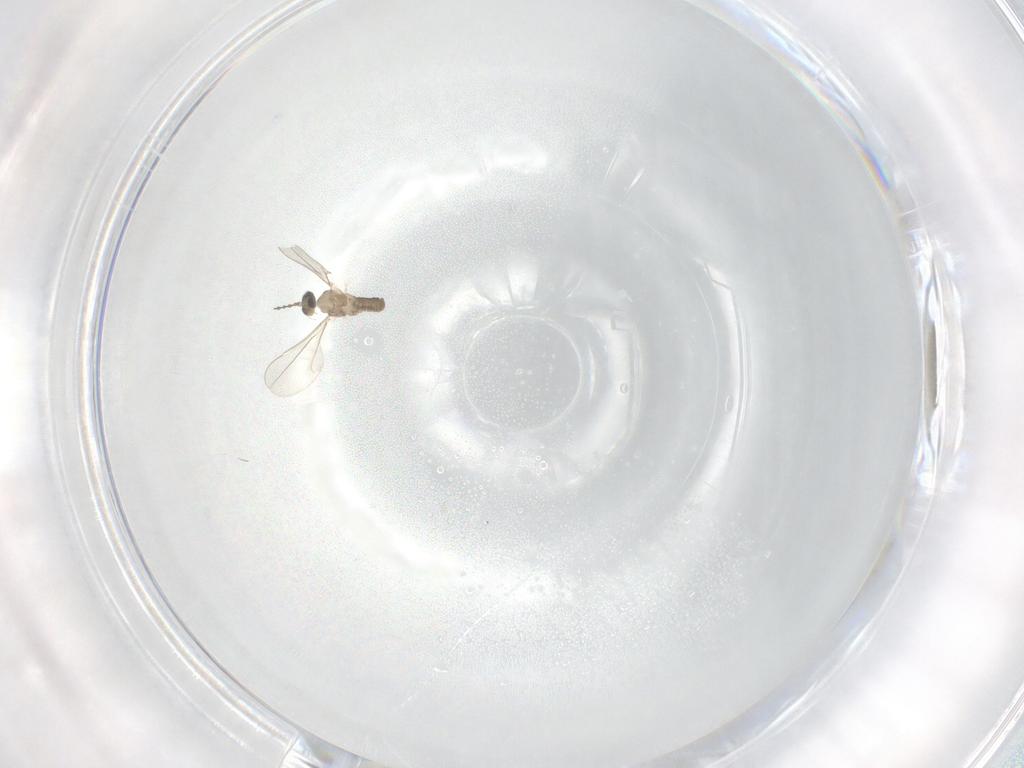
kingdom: Animalia
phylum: Arthropoda
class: Insecta
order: Diptera
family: Cecidomyiidae
